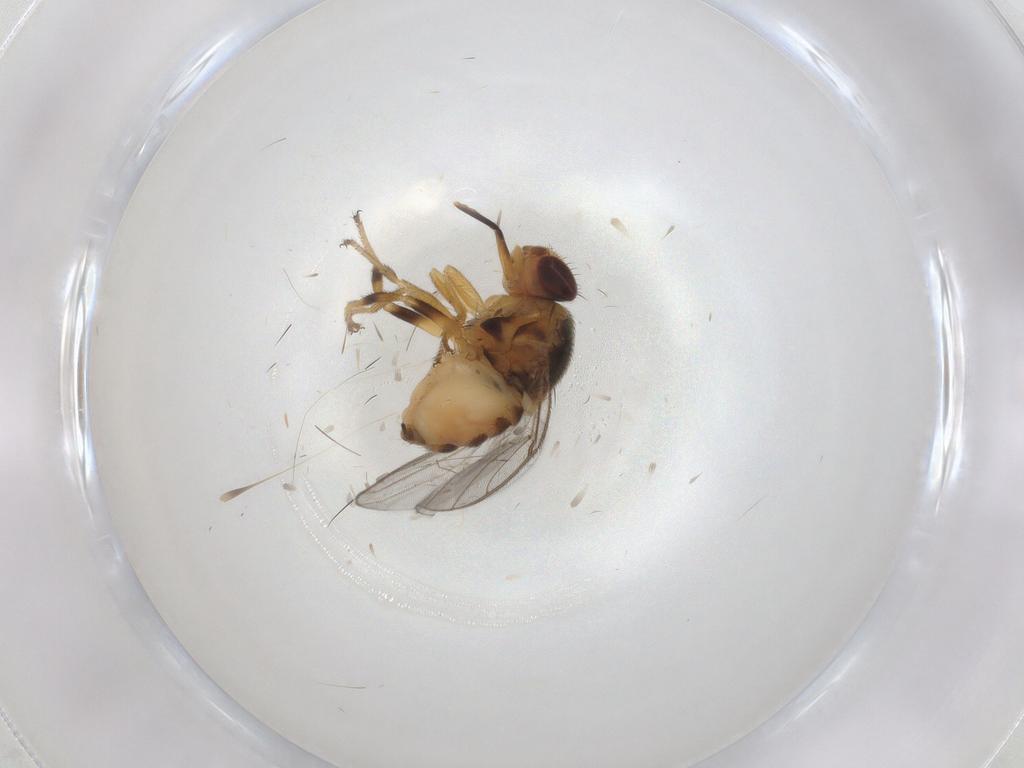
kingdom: Animalia
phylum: Arthropoda
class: Insecta
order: Diptera
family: Chloropidae
